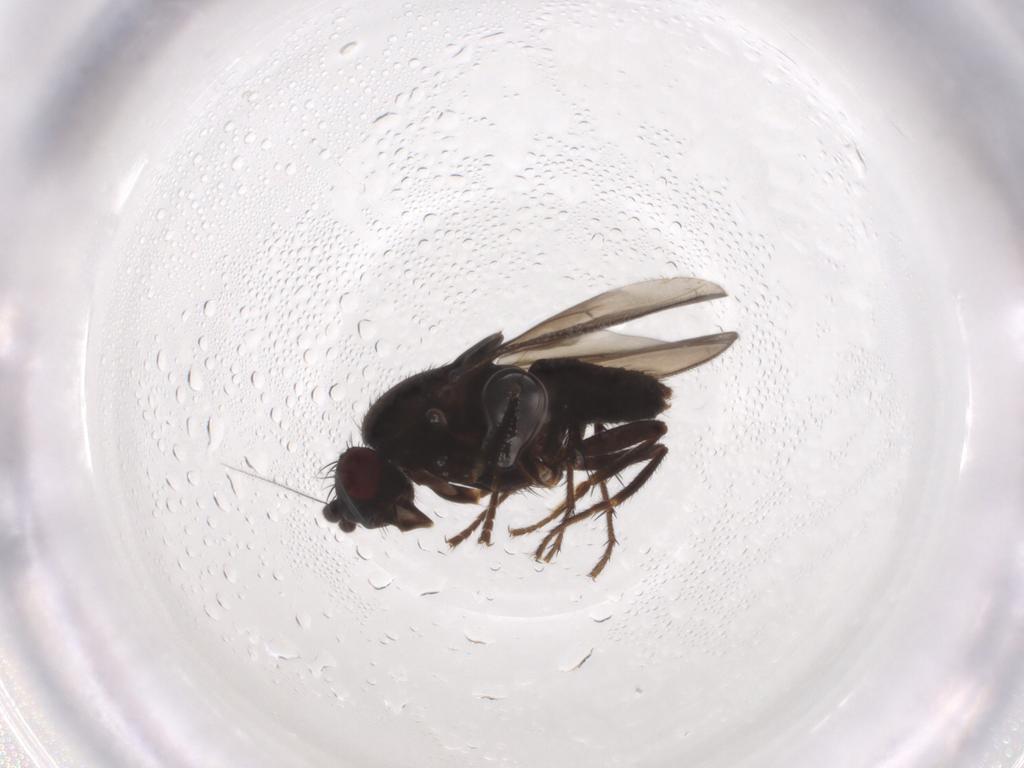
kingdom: Animalia
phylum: Arthropoda
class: Insecta
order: Diptera
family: Sphaeroceridae
